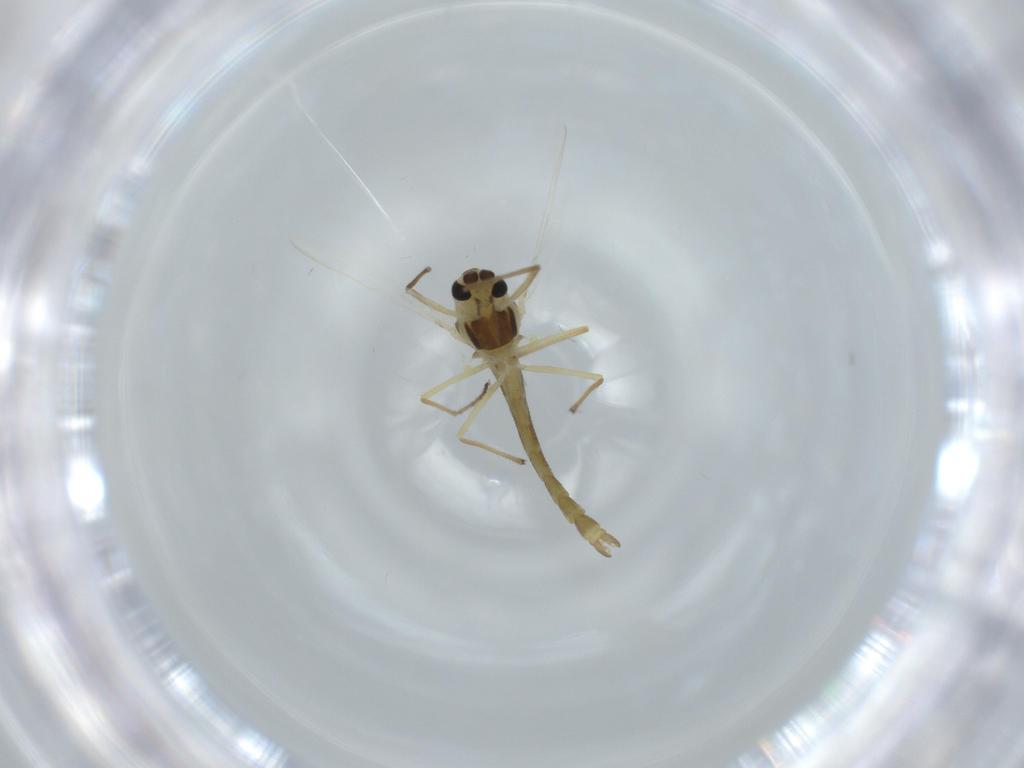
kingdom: Animalia
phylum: Arthropoda
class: Insecta
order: Diptera
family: Chironomidae
